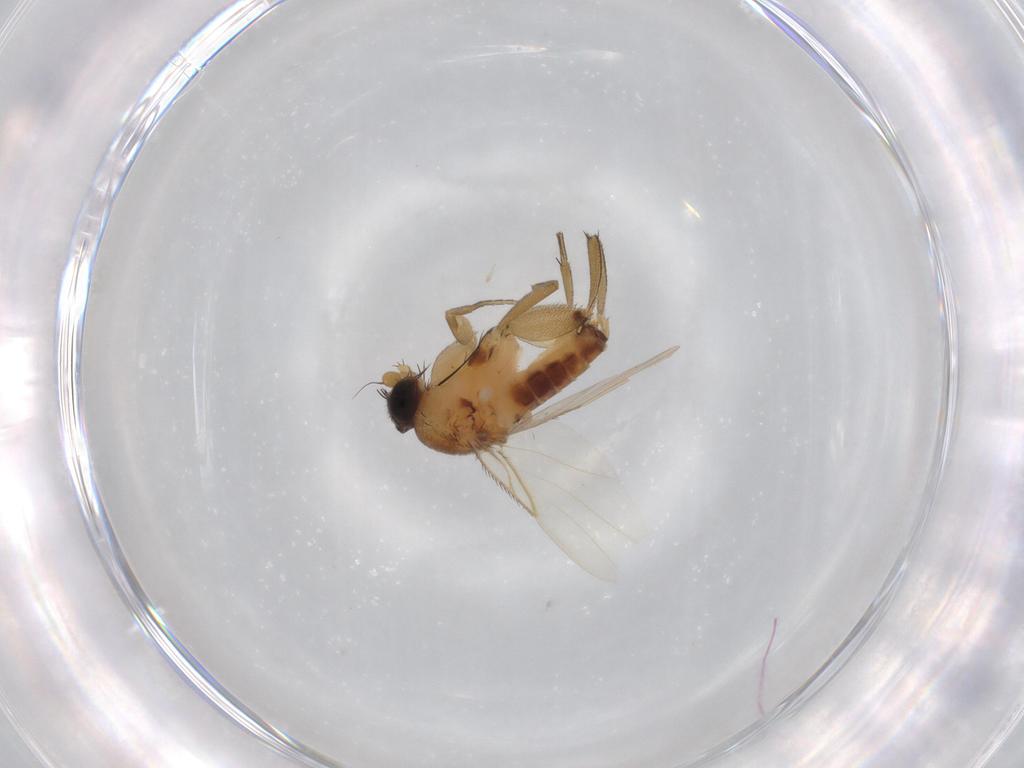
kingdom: Animalia
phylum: Arthropoda
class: Insecta
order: Diptera
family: Phoridae
